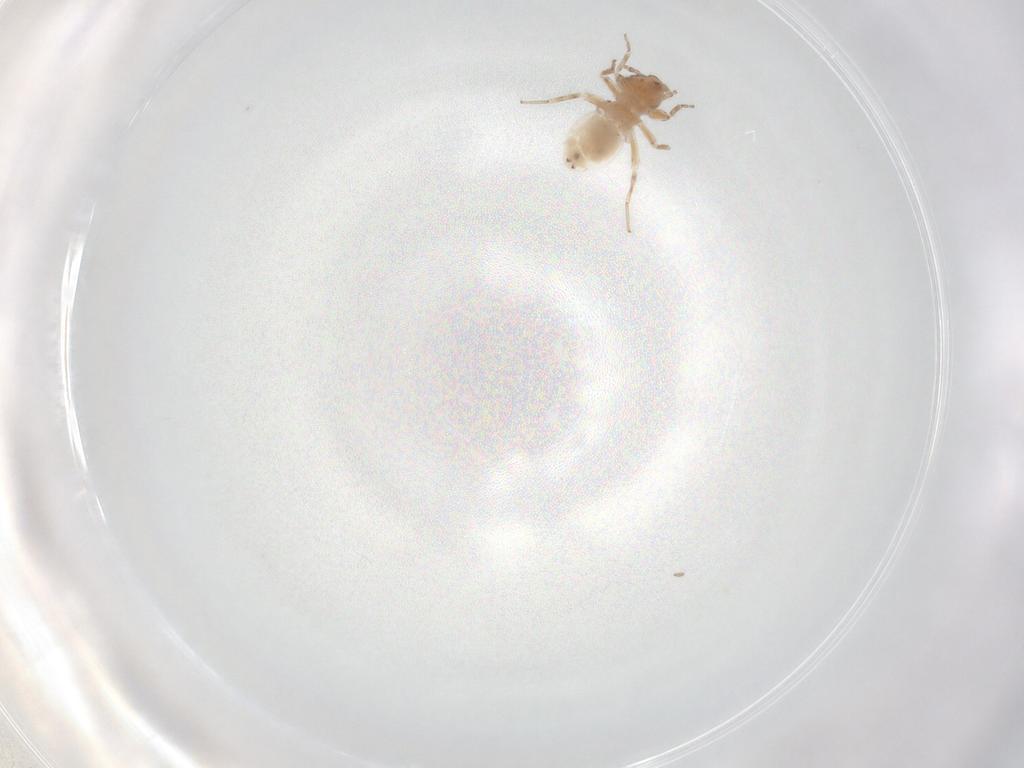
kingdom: Animalia
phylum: Arthropoda
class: Insecta
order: Psocodea
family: Lepidopsocidae
